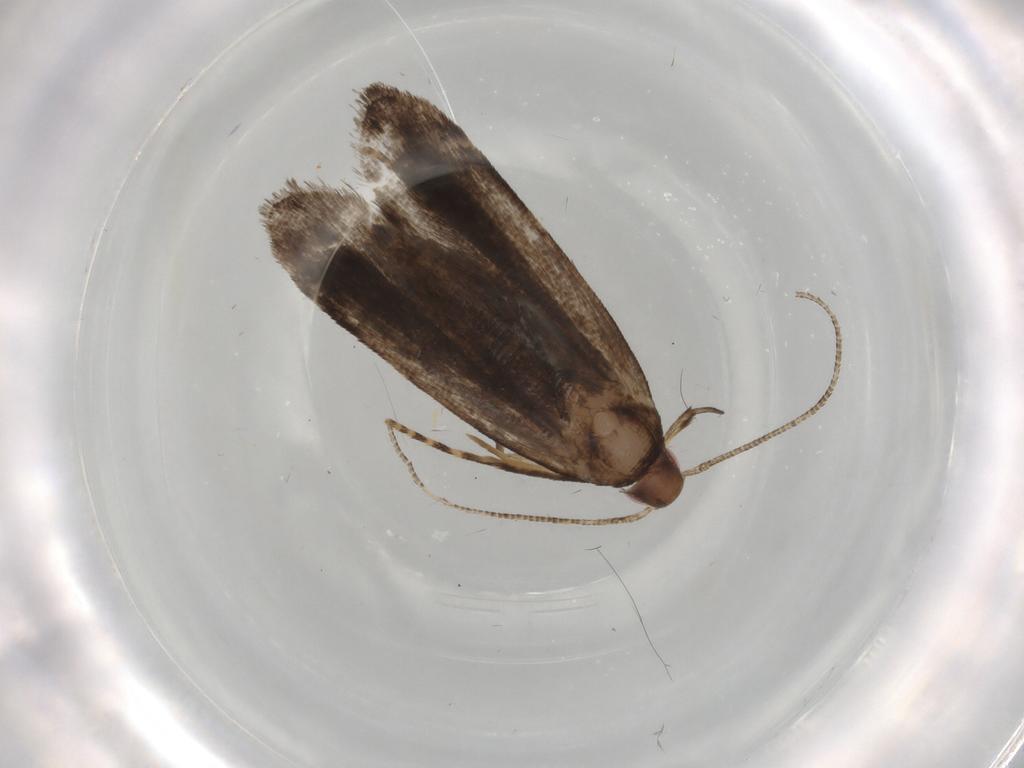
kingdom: Animalia
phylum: Arthropoda
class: Insecta
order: Lepidoptera
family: Gelechiidae
